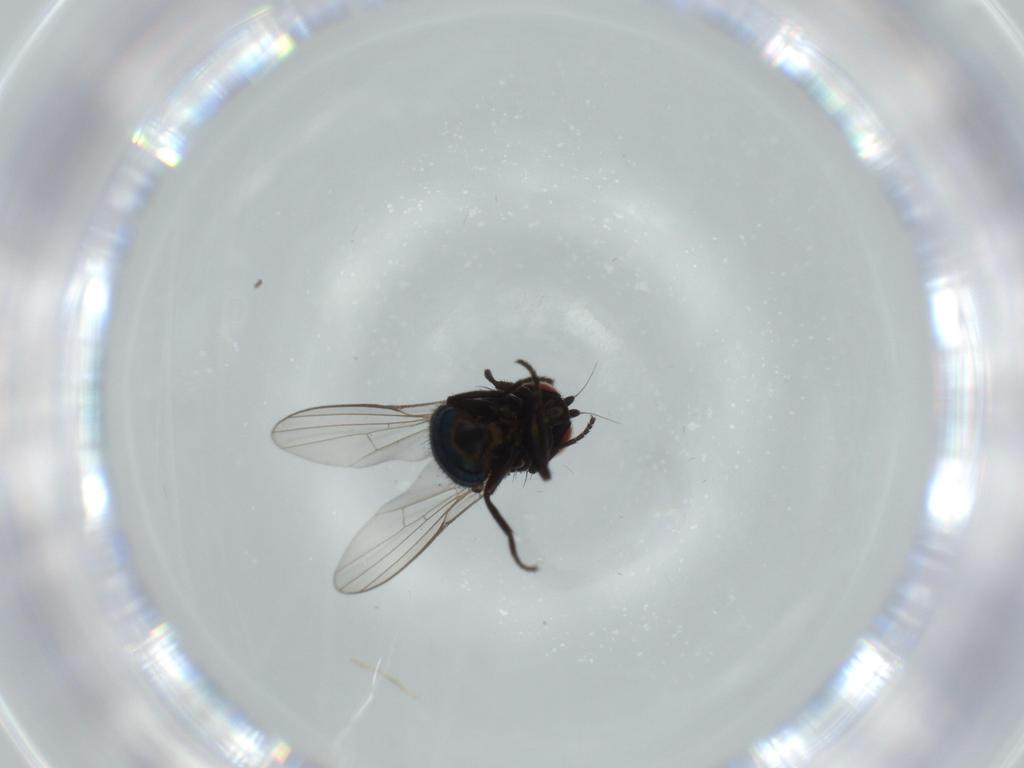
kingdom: Animalia
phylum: Arthropoda
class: Insecta
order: Diptera
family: Agromyzidae
